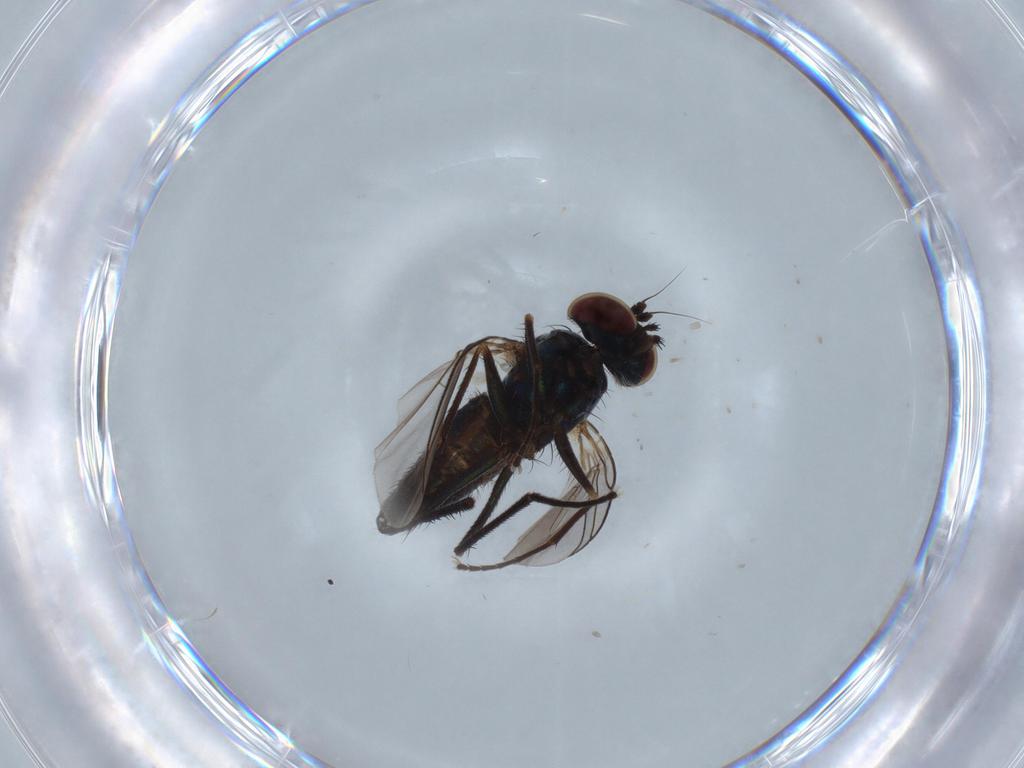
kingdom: Animalia
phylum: Arthropoda
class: Insecta
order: Diptera
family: Dolichopodidae
